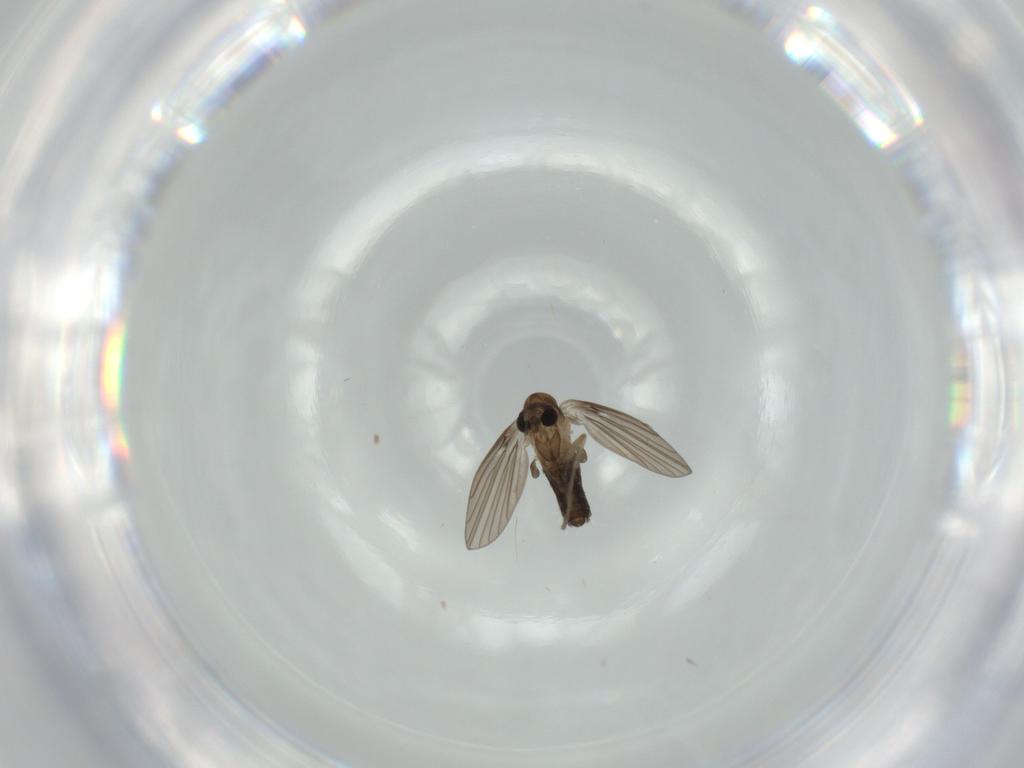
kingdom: Animalia
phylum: Arthropoda
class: Insecta
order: Diptera
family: Psychodidae
